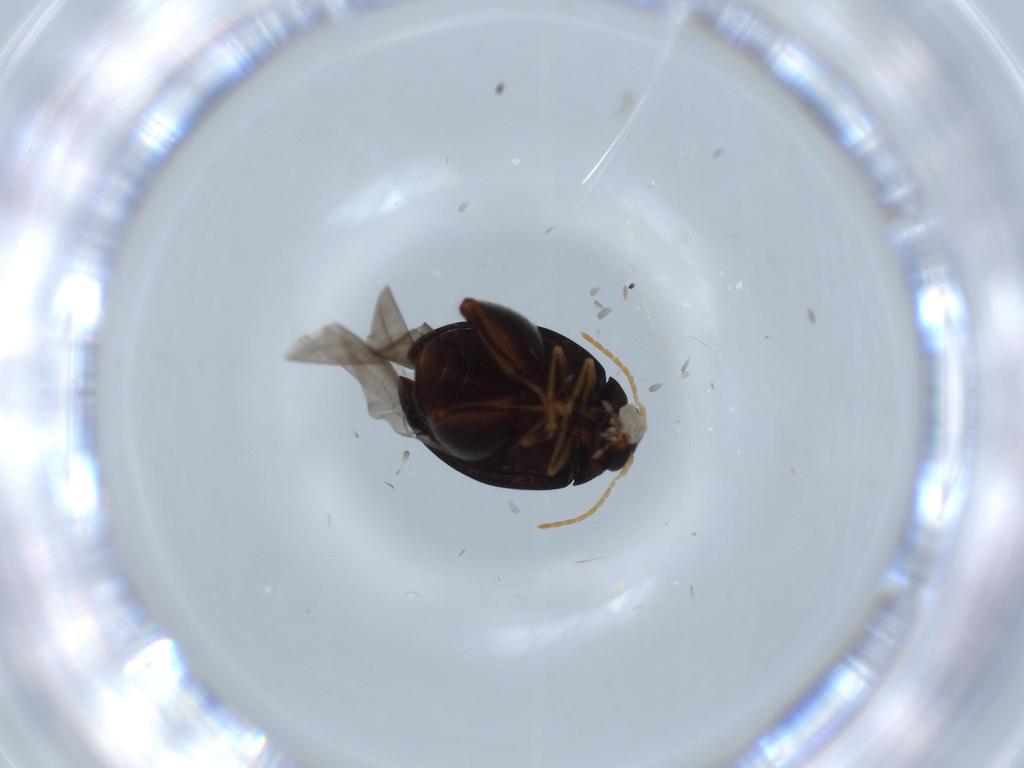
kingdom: Animalia
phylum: Arthropoda
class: Insecta
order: Coleoptera
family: Chrysomelidae
